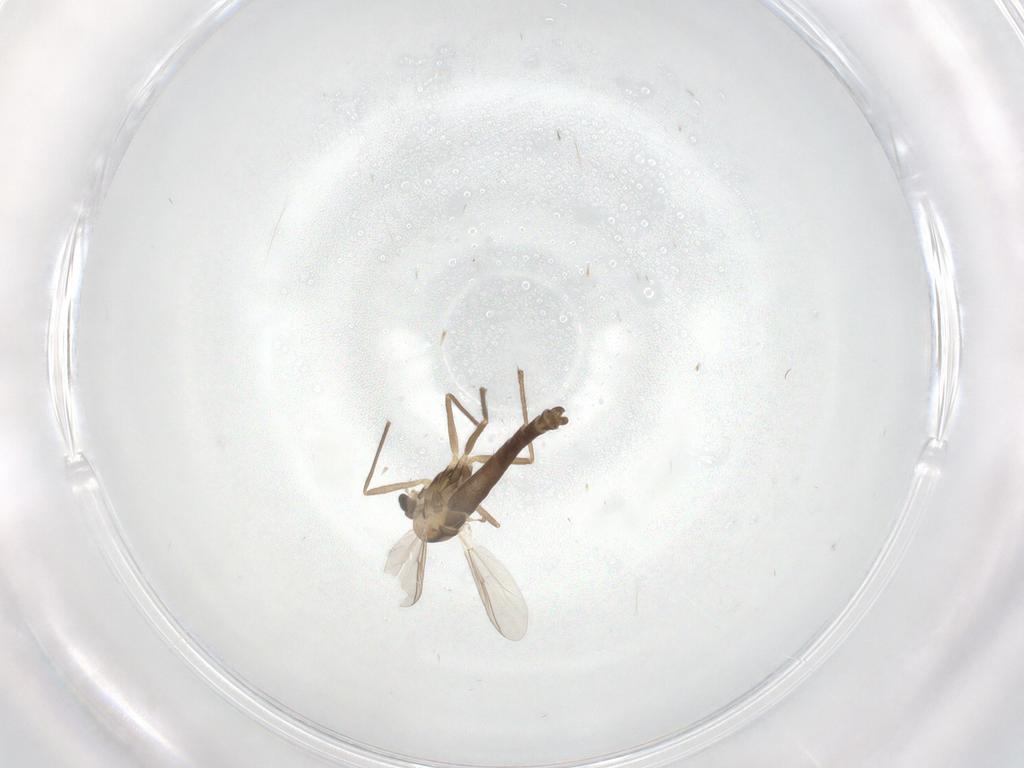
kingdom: Animalia
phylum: Arthropoda
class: Insecta
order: Diptera
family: Chironomidae
